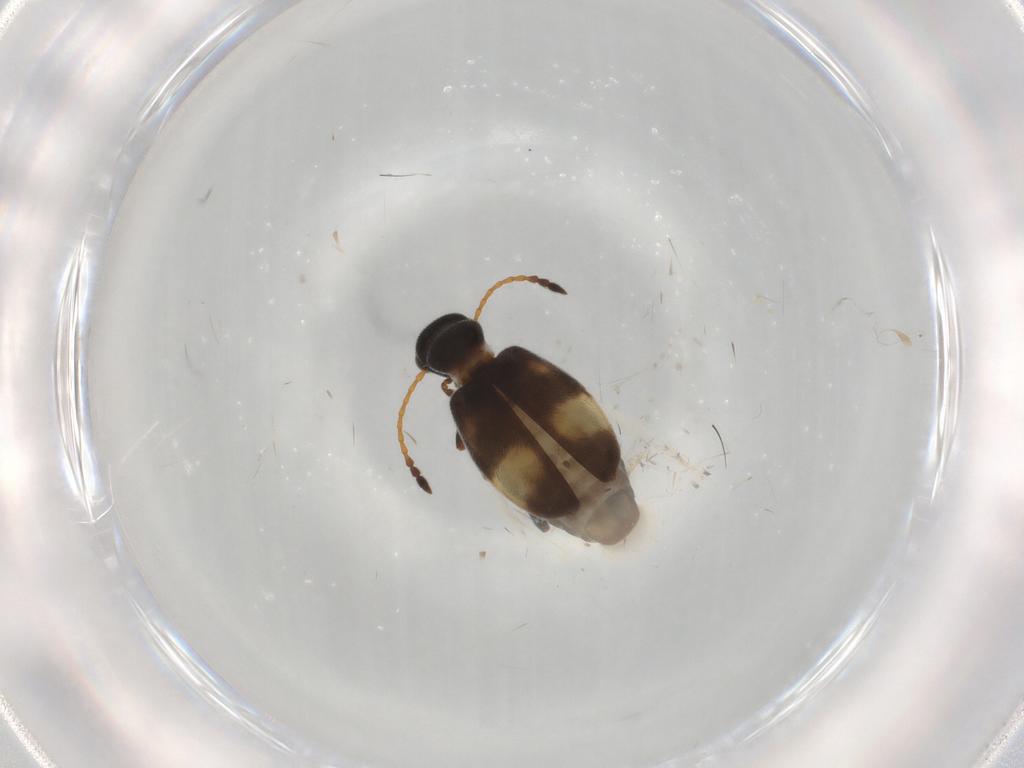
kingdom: Animalia
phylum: Arthropoda
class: Insecta
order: Coleoptera
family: Anthicidae
